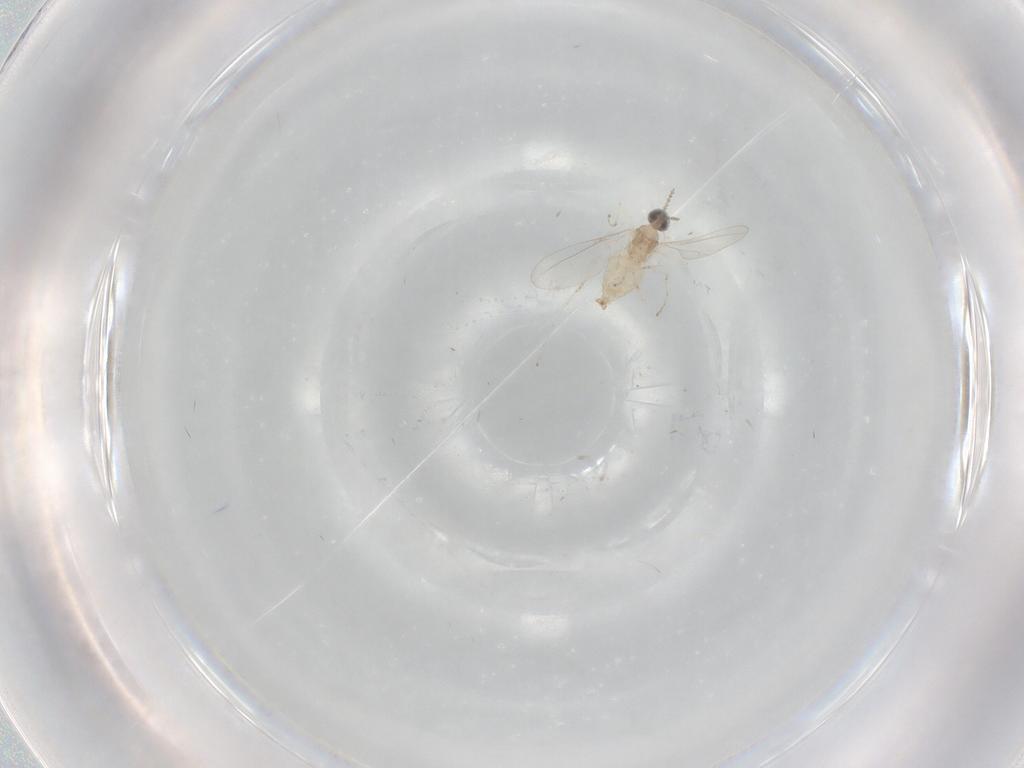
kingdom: Animalia
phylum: Arthropoda
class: Insecta
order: Diptera
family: Cecidomyiidae
